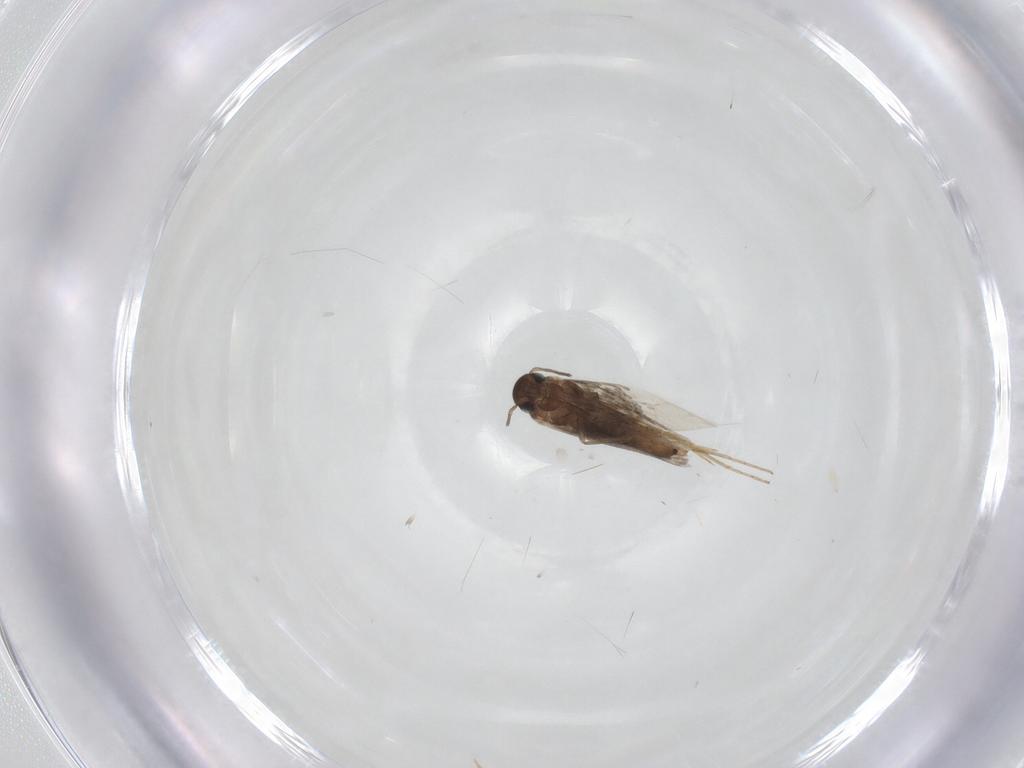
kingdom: Animalia
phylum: Arthropoda
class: Insecta
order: Lepidoptera
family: Heliozelidae
